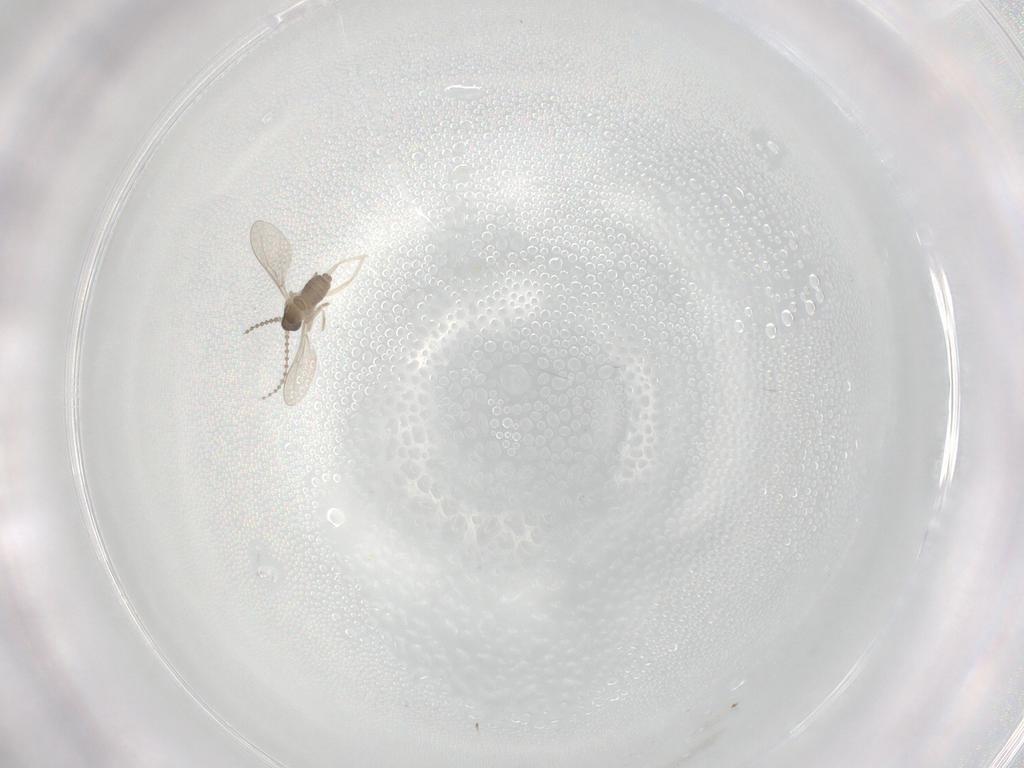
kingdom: Animalia
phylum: Arthropoda
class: Insecta
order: Diptera
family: Cecidomyiidae
